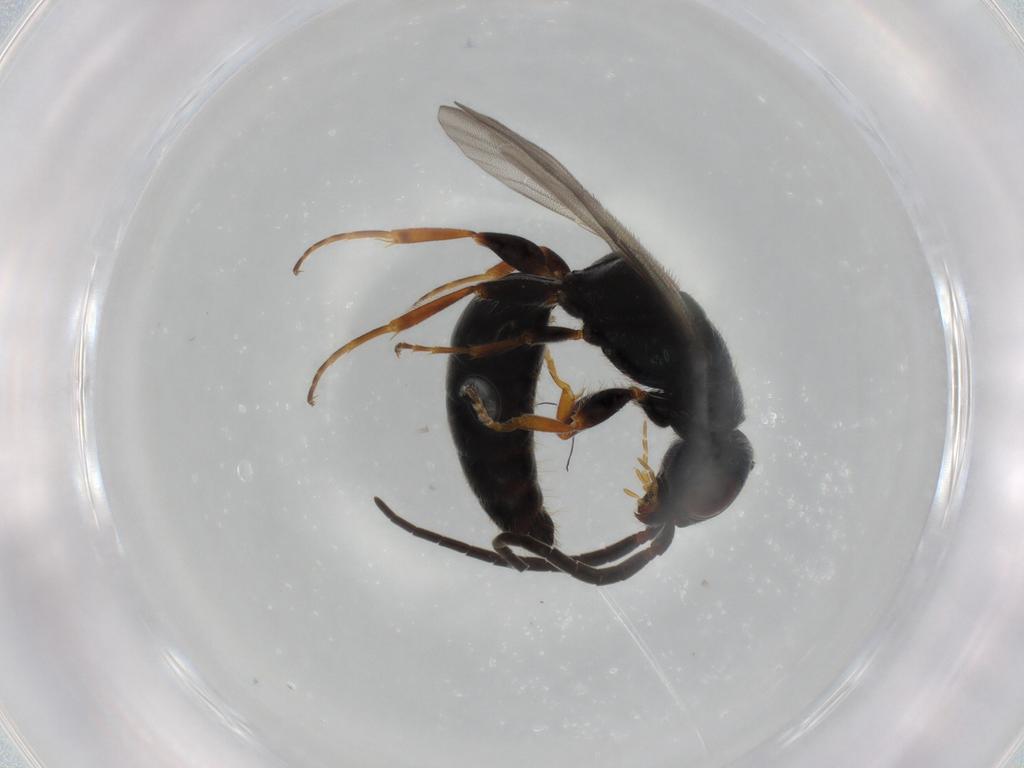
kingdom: Animalia
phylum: Arthropoda
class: Insecta
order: Hymenoptera
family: Bethylidae
